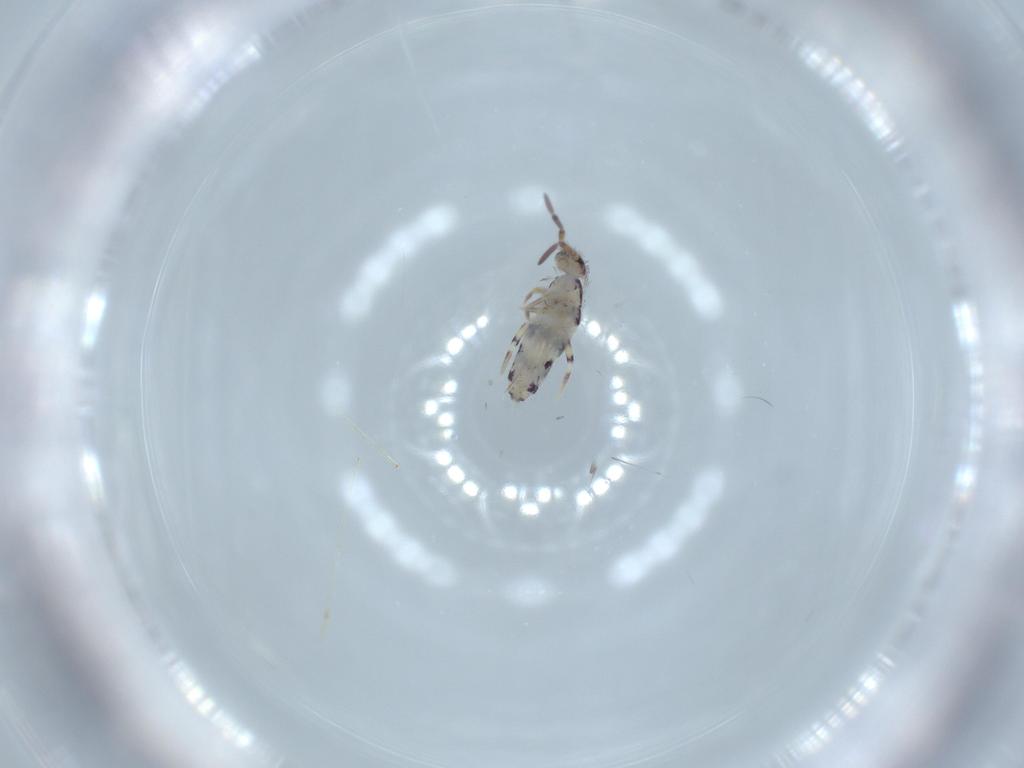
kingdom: Animalia
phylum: Arthropoda
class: Collembola
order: Entomobryomorpha
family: Entomobryidae
